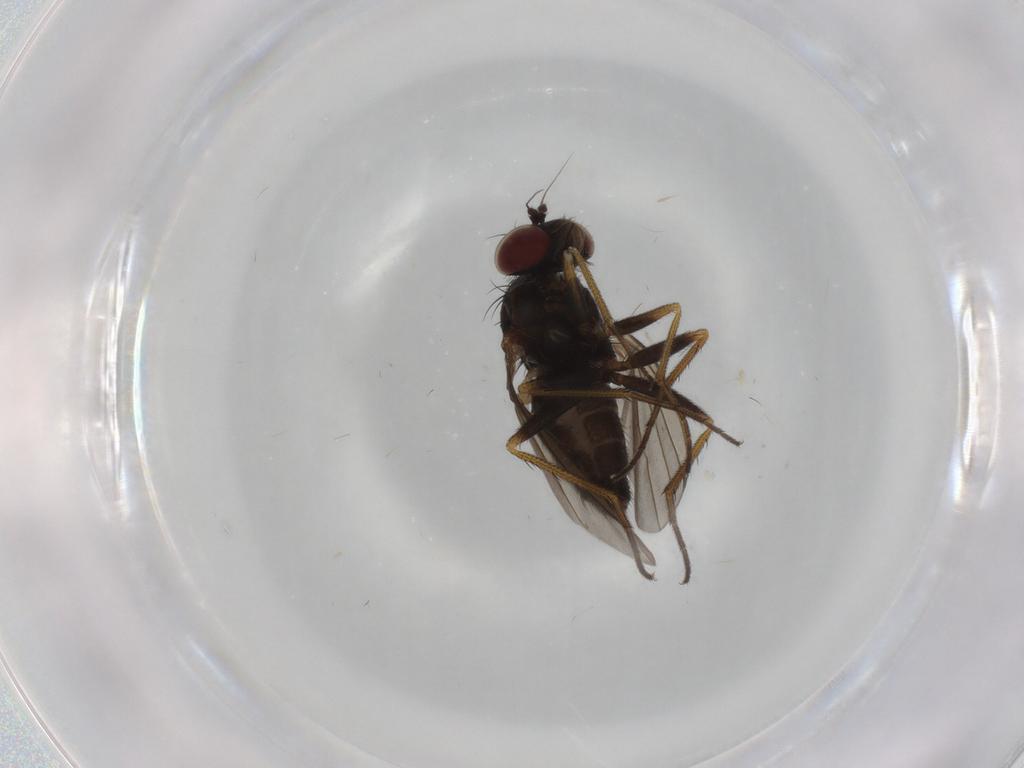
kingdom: Animalia
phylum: Arthropoda
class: Insecta
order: Diptera
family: Dolichopodidae
